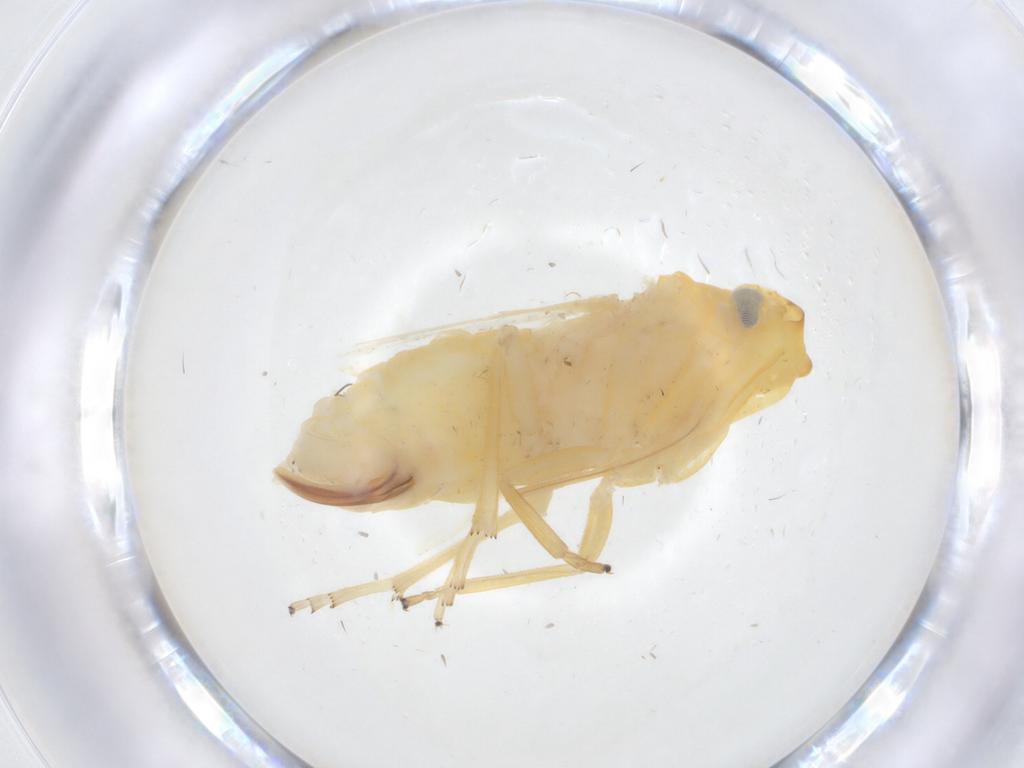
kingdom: Animalia
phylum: Arthropoda
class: Insecta
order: Hemiptera
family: Cixiidae
